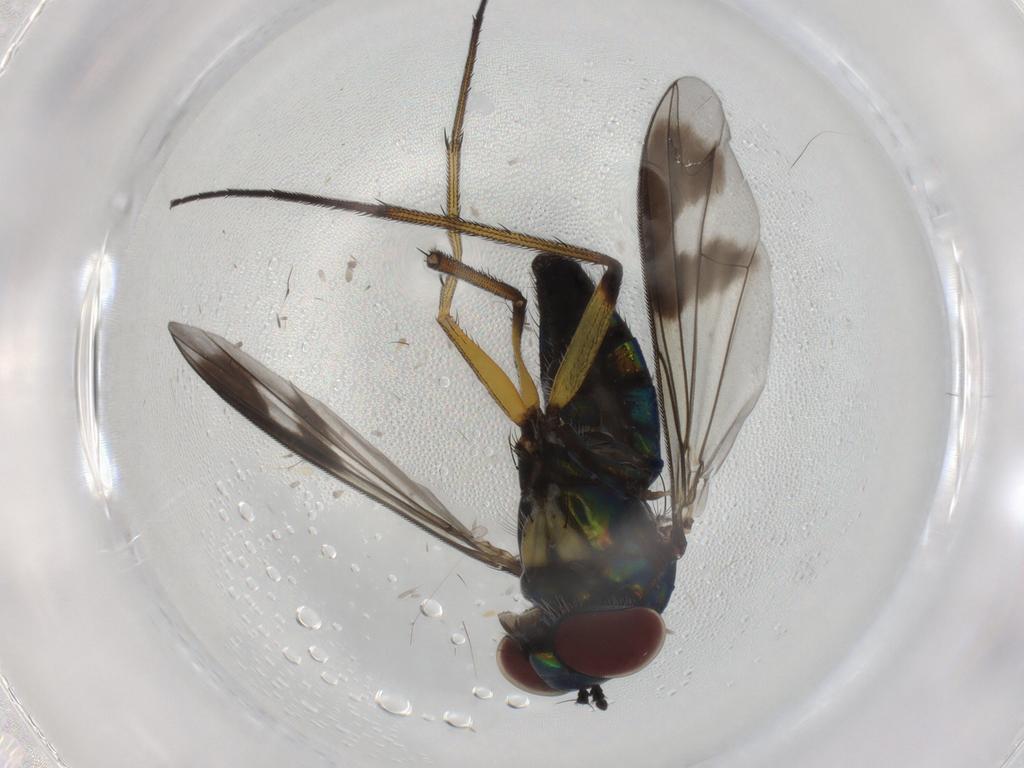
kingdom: Animalia
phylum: Arthropoda
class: Insecta
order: Diptera
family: Dolichopodidae
